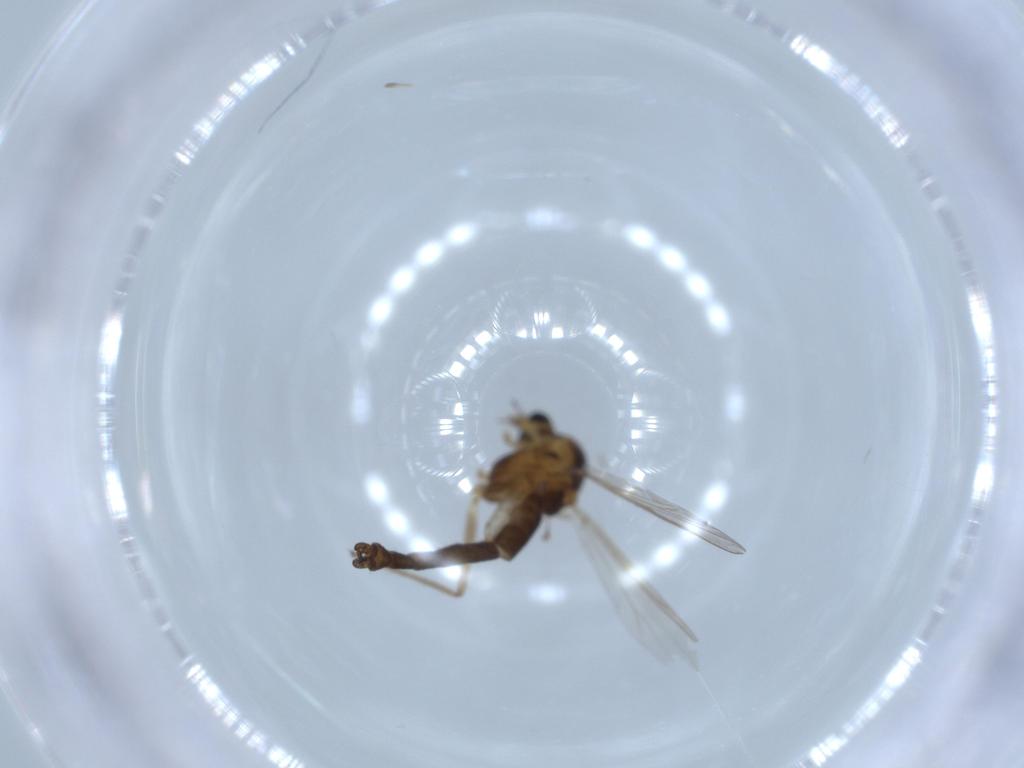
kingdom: Animalia
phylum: Arthropoda
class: Insecta
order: Diptera
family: Chironomidae
